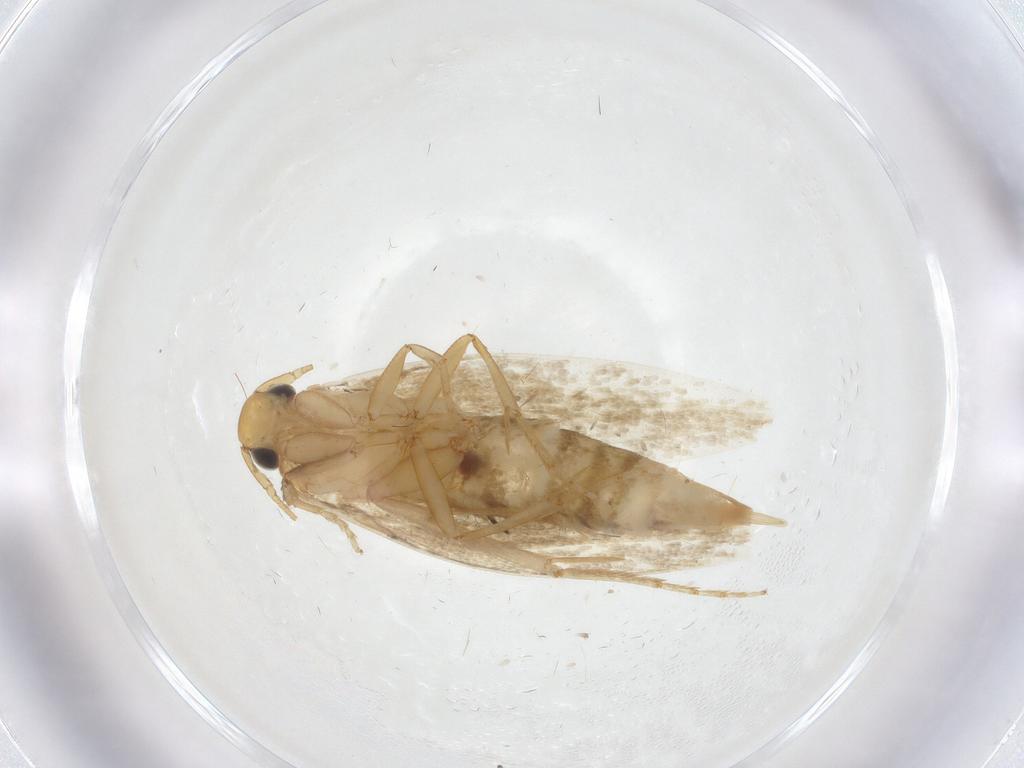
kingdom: Animalia
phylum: Arthropoda
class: Insecta
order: Lepidoptera
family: Tineidae
